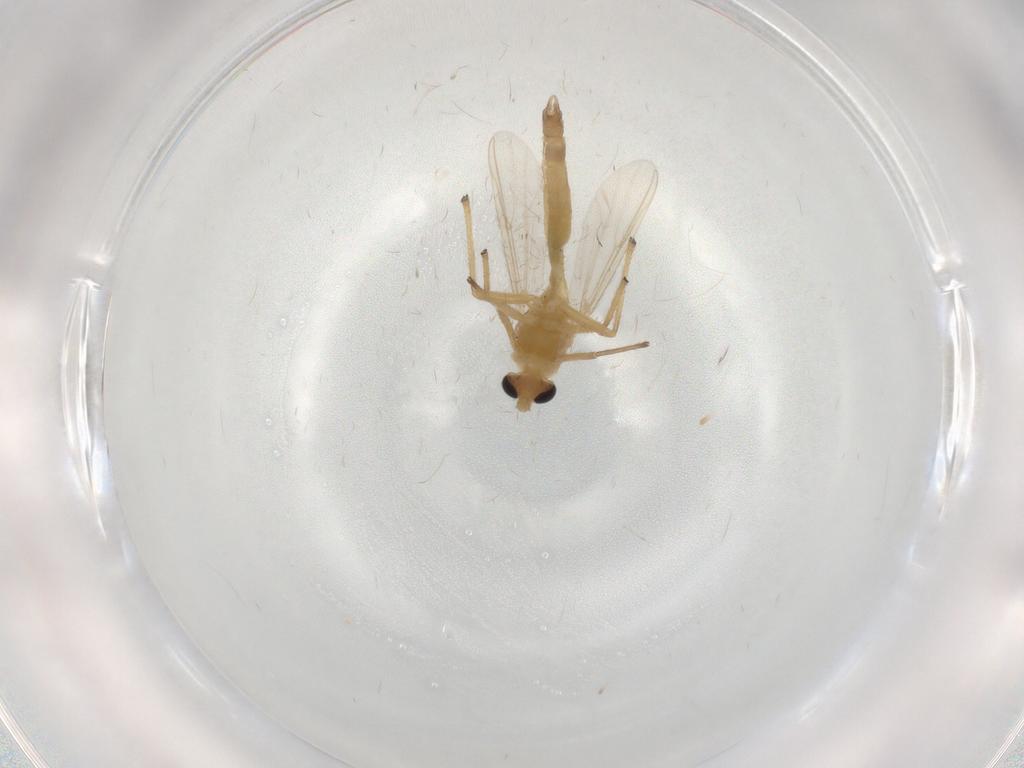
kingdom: Animalia
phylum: Arthropoda
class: Insecta
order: Diptera
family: Chironomidae
